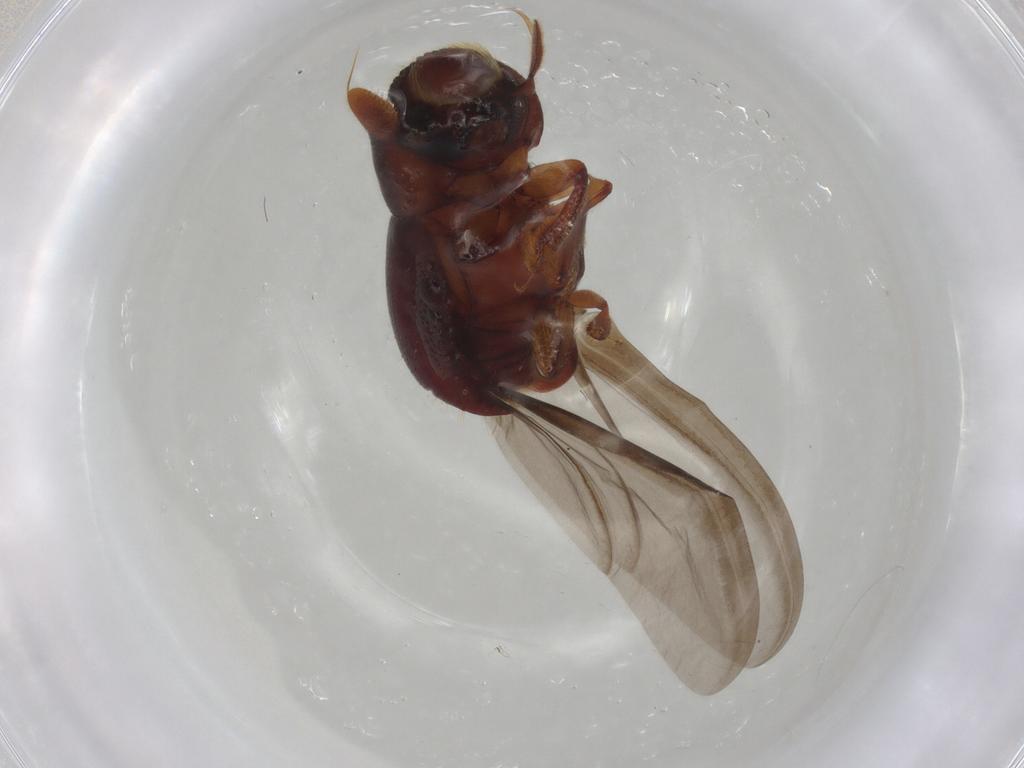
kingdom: Animalia
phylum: Arthropoda
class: Insecta
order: Coleoptera
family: Curculionidae
